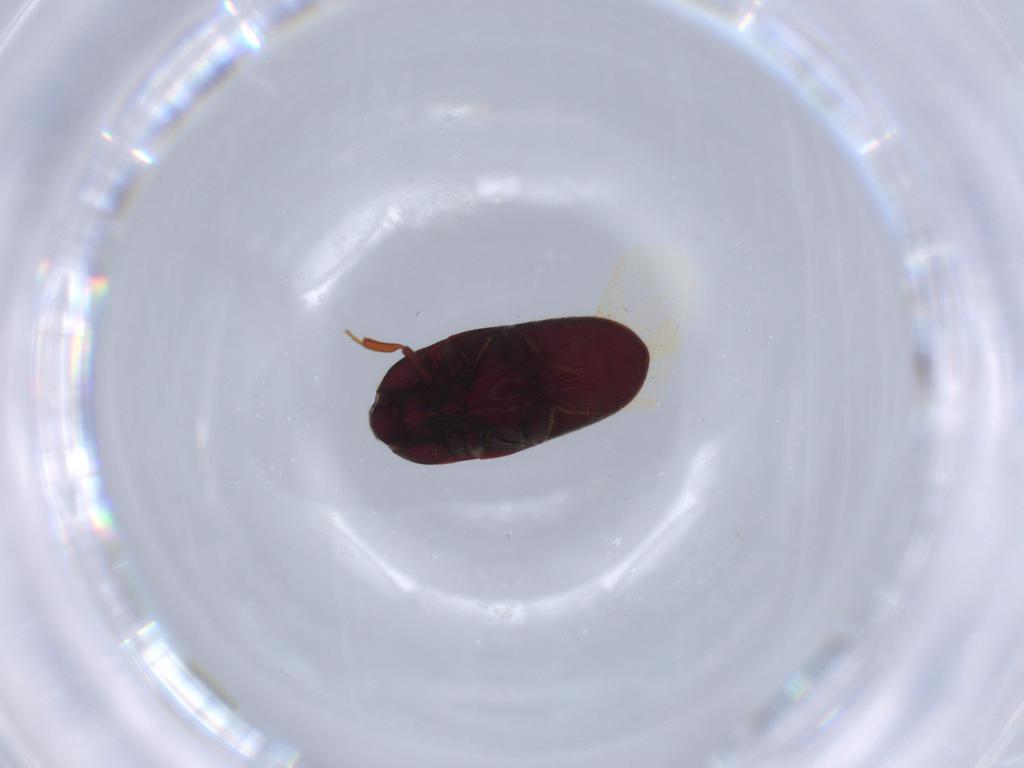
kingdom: Animalia
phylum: Arthropoda
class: Insecta
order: Coleoptera
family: Throscidae
